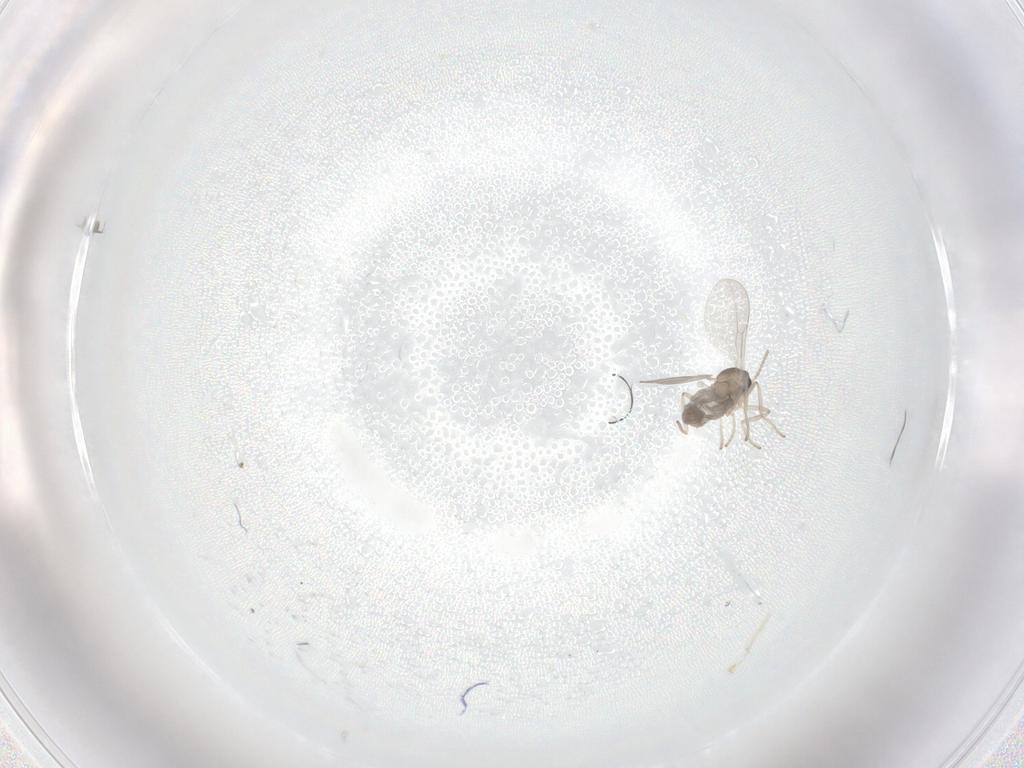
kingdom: Animalia
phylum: Arthropoda
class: Insecta
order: Diptera
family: Cecidomyiidae
